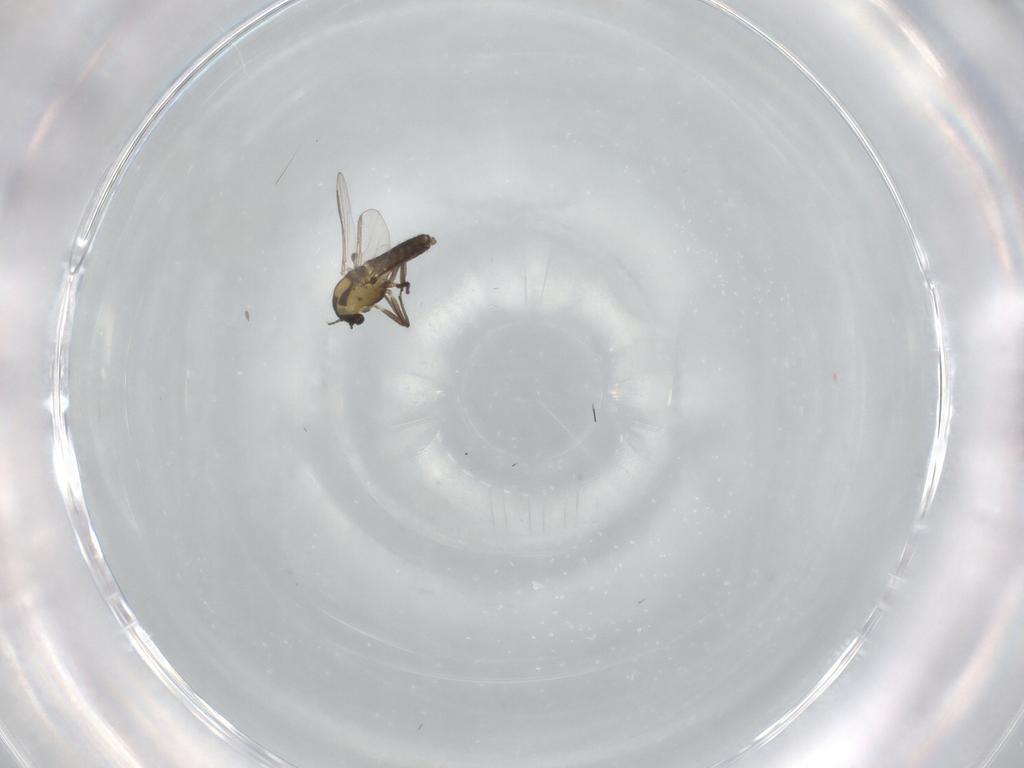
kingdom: Animalia
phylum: Arthropoda
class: Insecta
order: Diptera
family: Chironomidae
